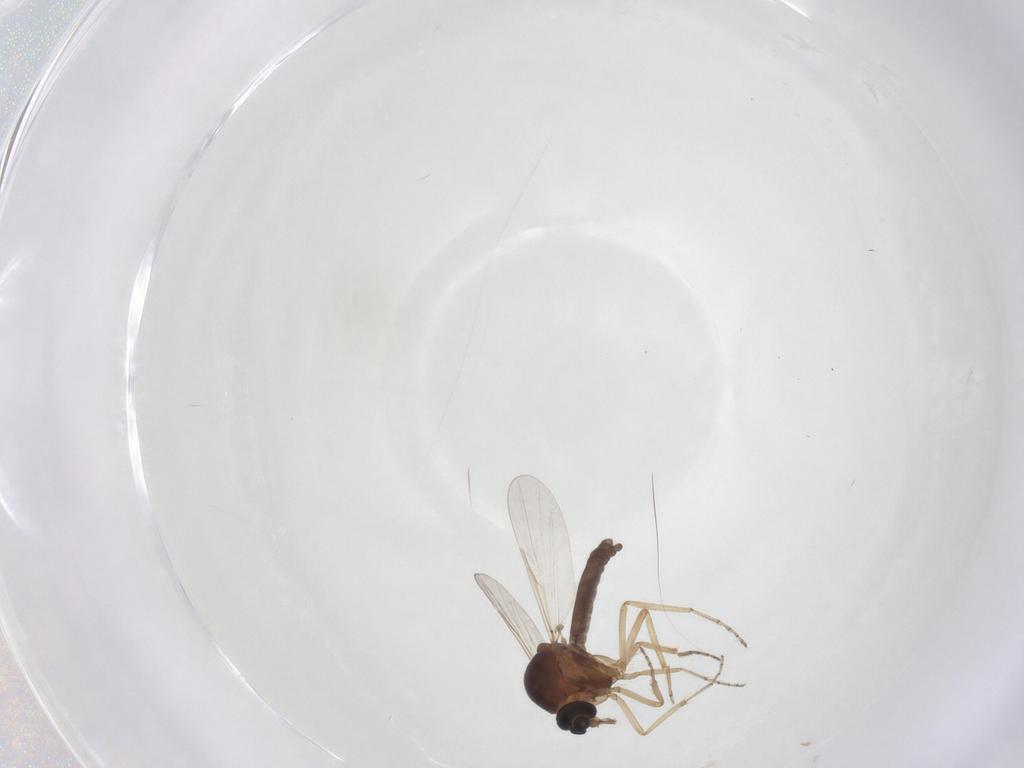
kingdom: Animalia
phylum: Arthropoda
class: Insecta
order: Diptera
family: Ceratopogonidae
